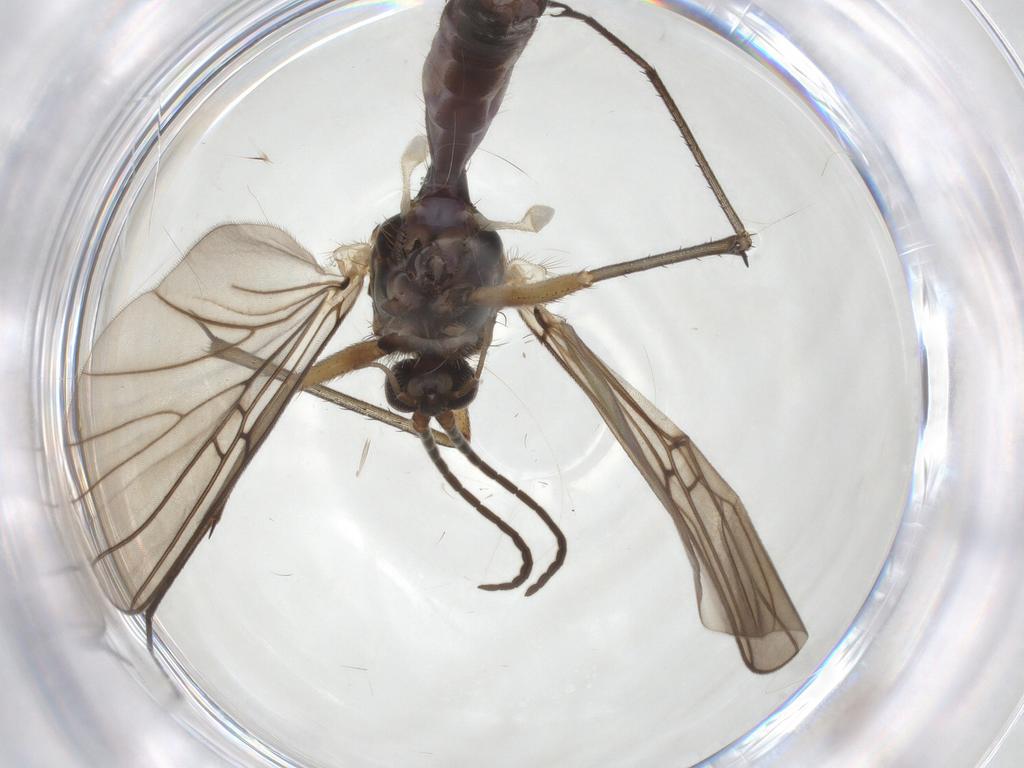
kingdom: Animalia
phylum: Arthropoda
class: Insecta
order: Diptera
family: Mycetophilidae
